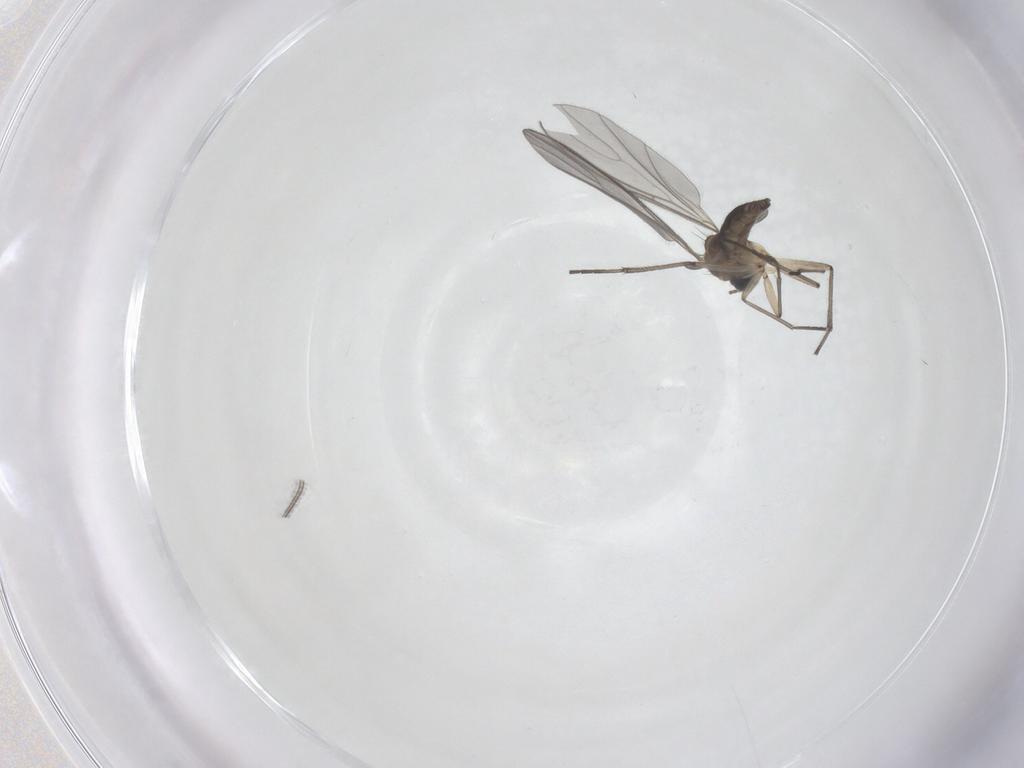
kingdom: Animalia
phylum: Arthropoda
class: Insecta
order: Diptera
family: Sciaridae
